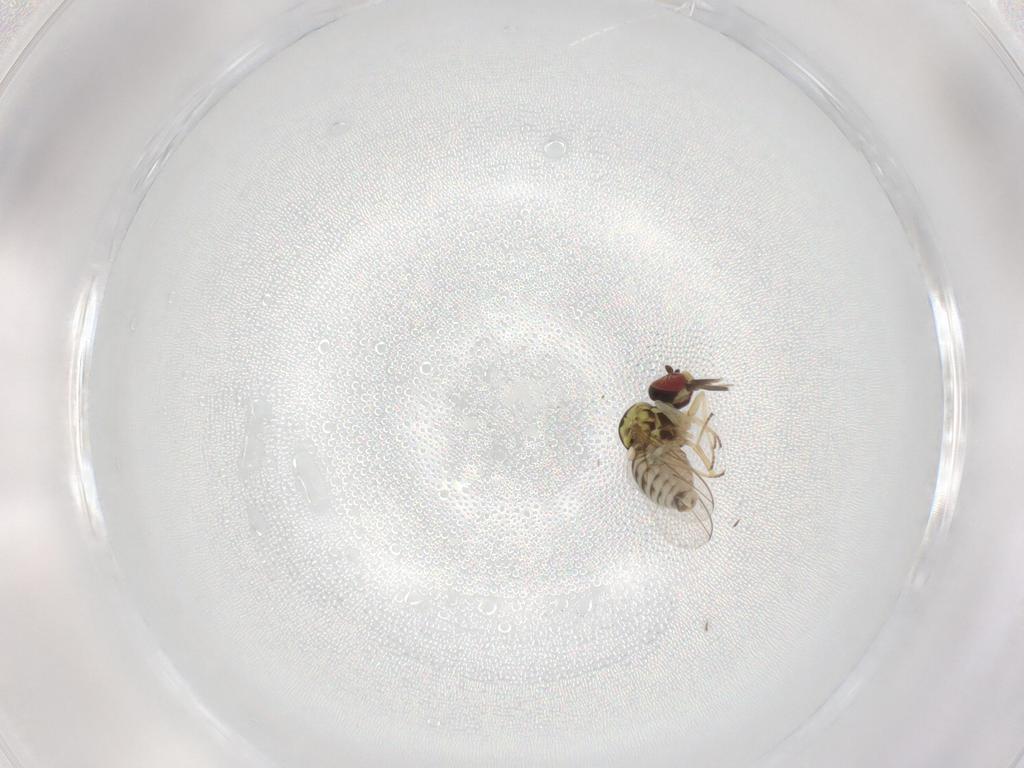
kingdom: Animalia
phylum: Arthropoda
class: Insecta
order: Diptera
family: Bombyliidae
